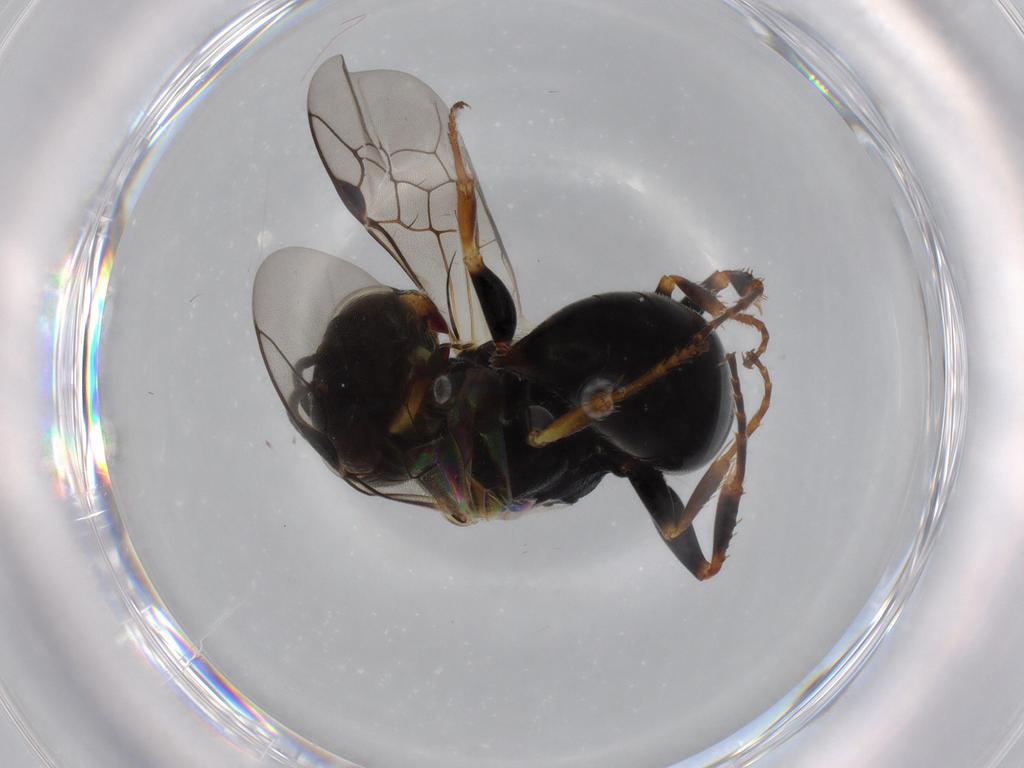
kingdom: Animalia
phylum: Arthropoda
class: Insecta
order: Hymenoptera
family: Crabronidae
